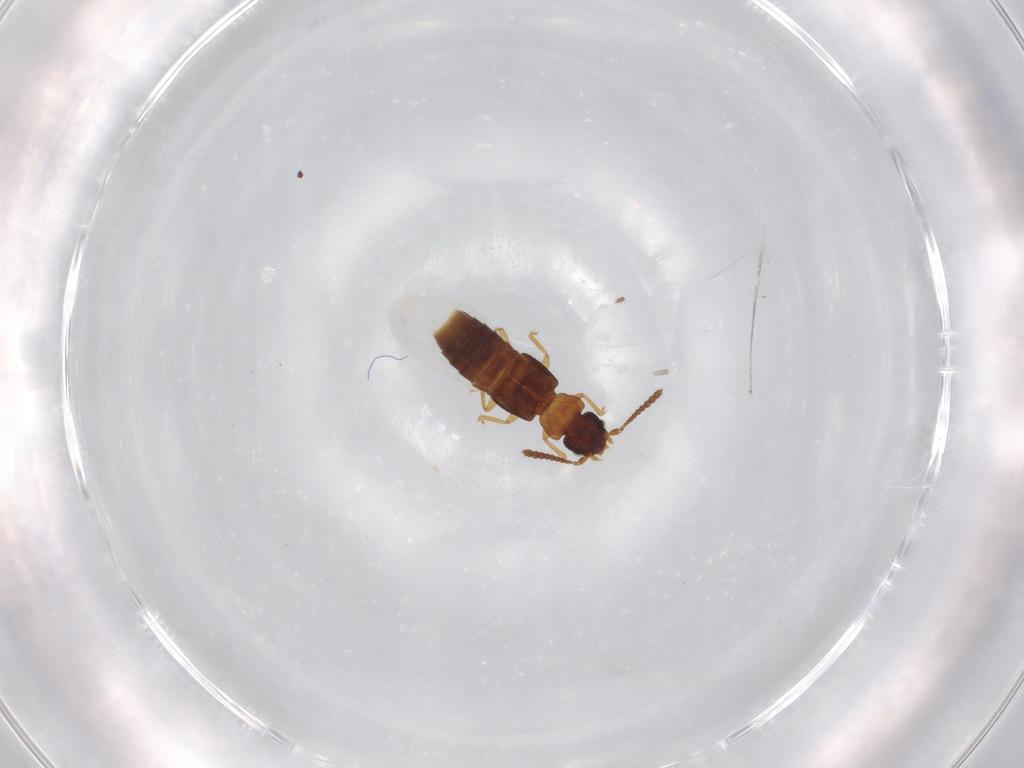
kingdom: Animalia
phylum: Arthropoda
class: Insecta
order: Coleoptera
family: Staphylinidae
